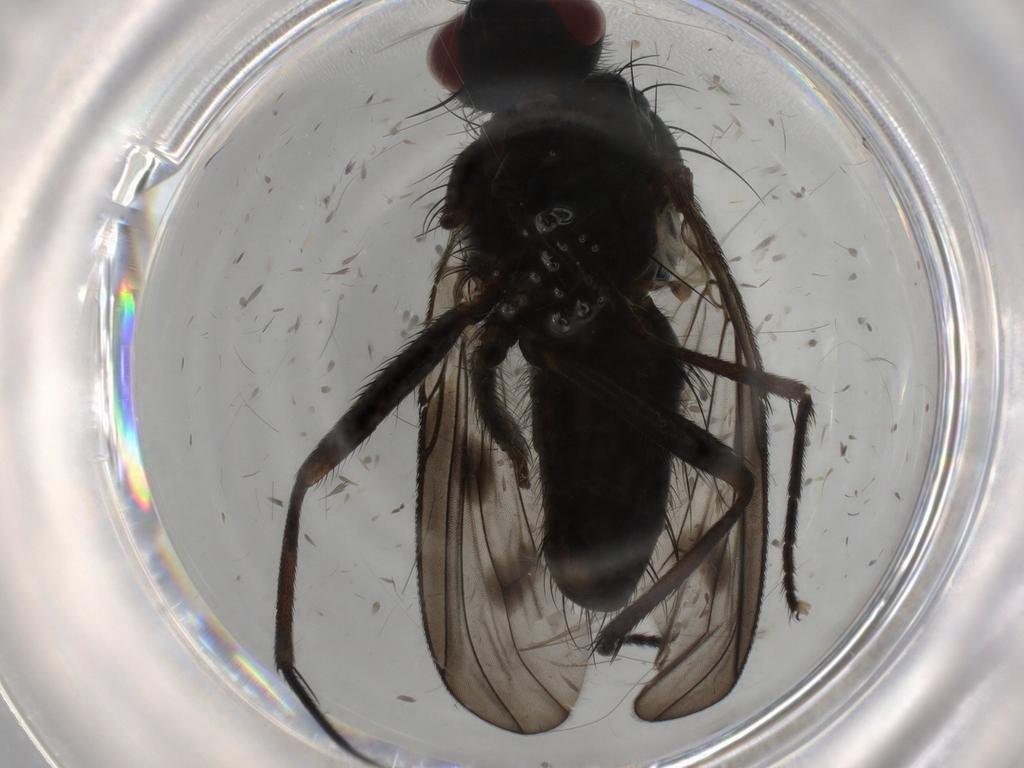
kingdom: Animalia
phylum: Arthropoda
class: Insecta
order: Diptera
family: Muscidae
